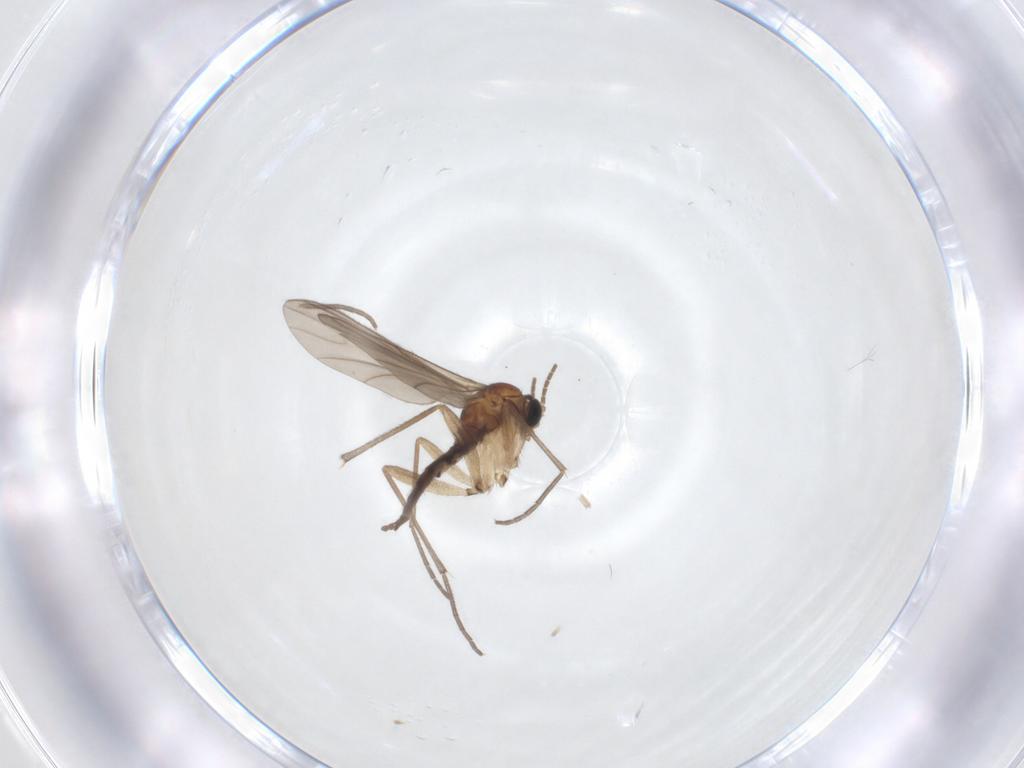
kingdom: Animalia
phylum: Arthropoda
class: Insecta
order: Diptera
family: Sciaridae
